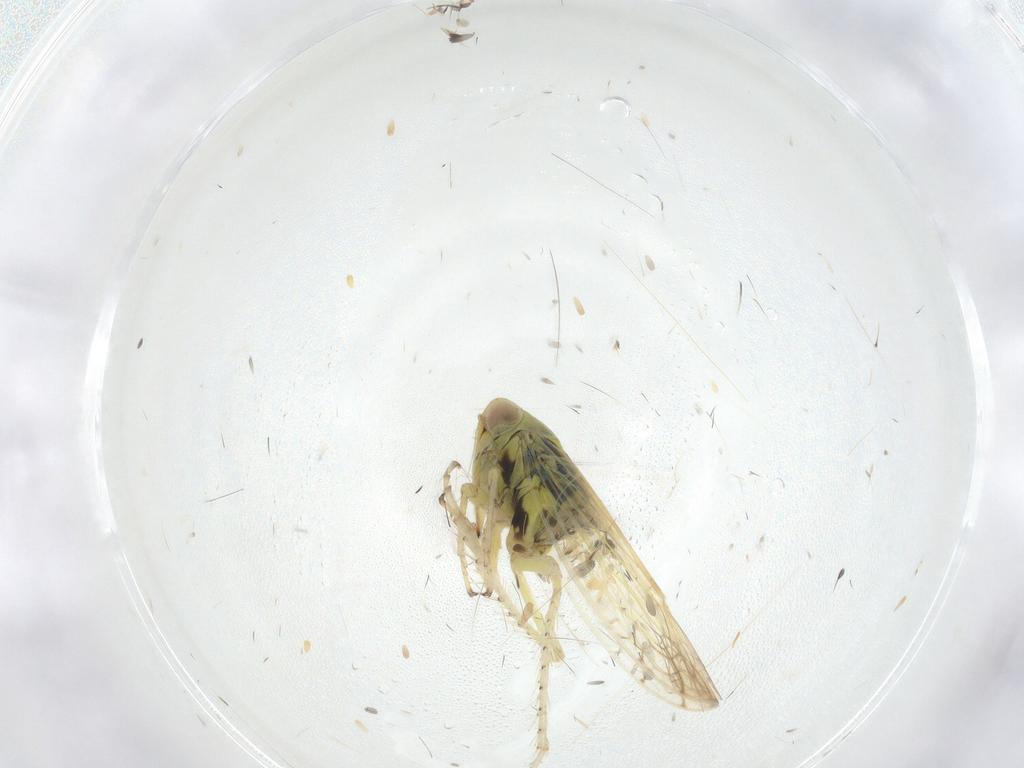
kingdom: Animalia
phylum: Arthropoda
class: Insecta
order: Hemiptera
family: Cicadellidae
